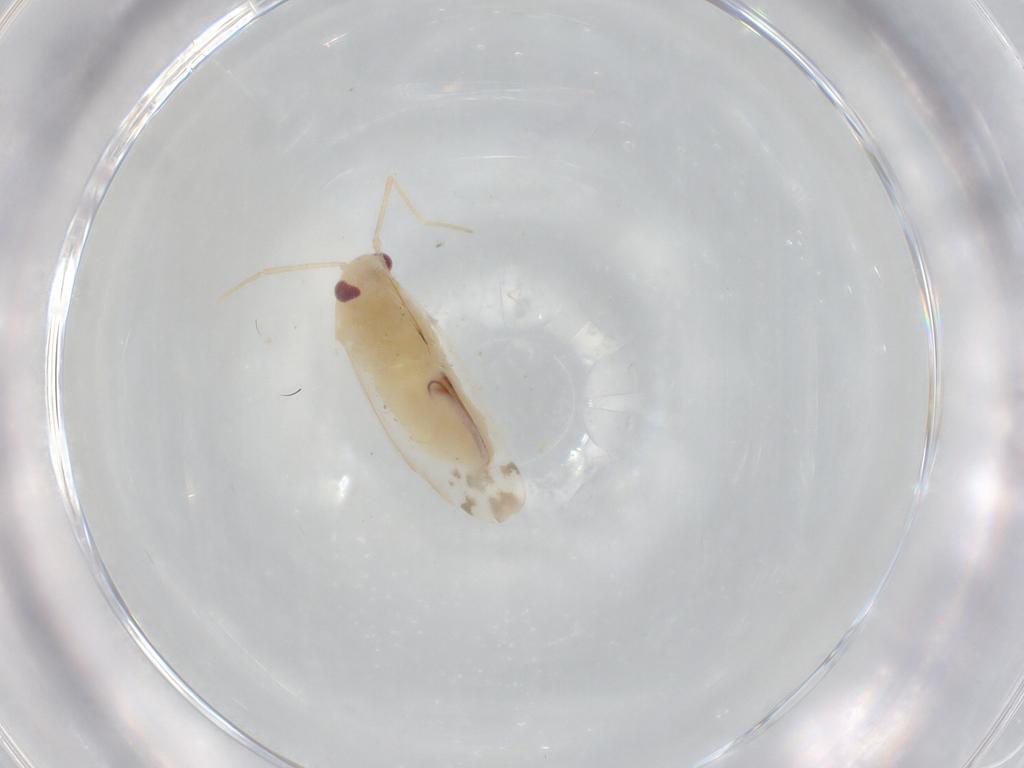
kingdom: Animalia
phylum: Arthropoda
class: Insecta
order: Hemiptera
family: Miridae
